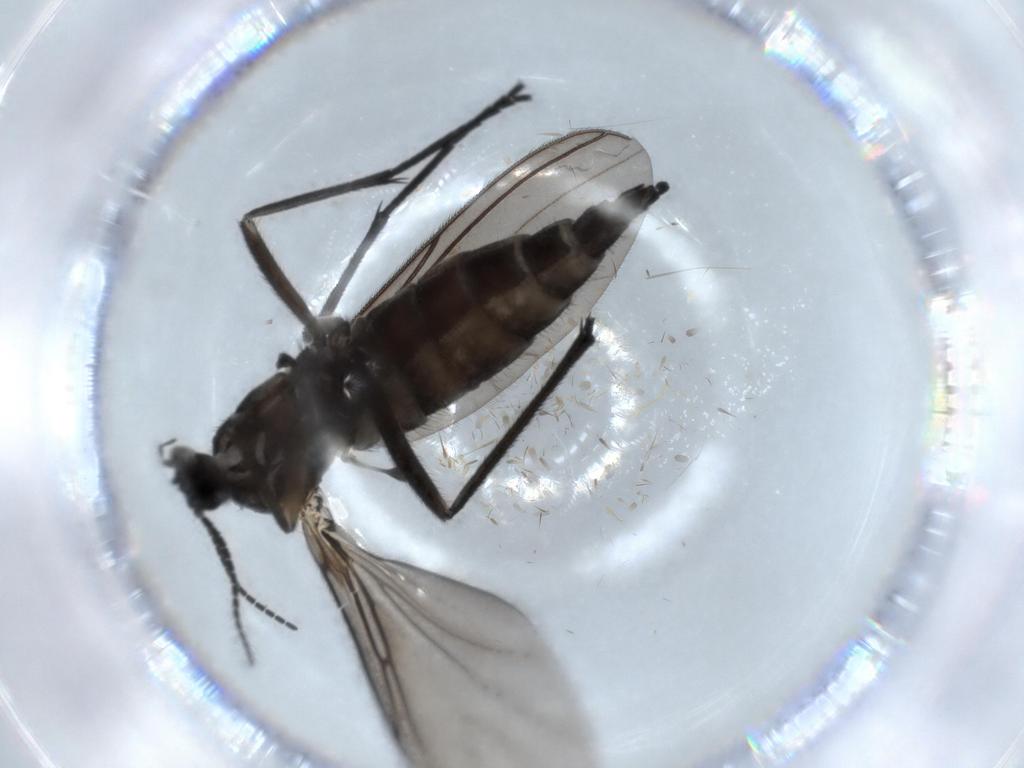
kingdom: Animalia
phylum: Arthropoda
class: Insecta
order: Diptera
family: Sciaridae
